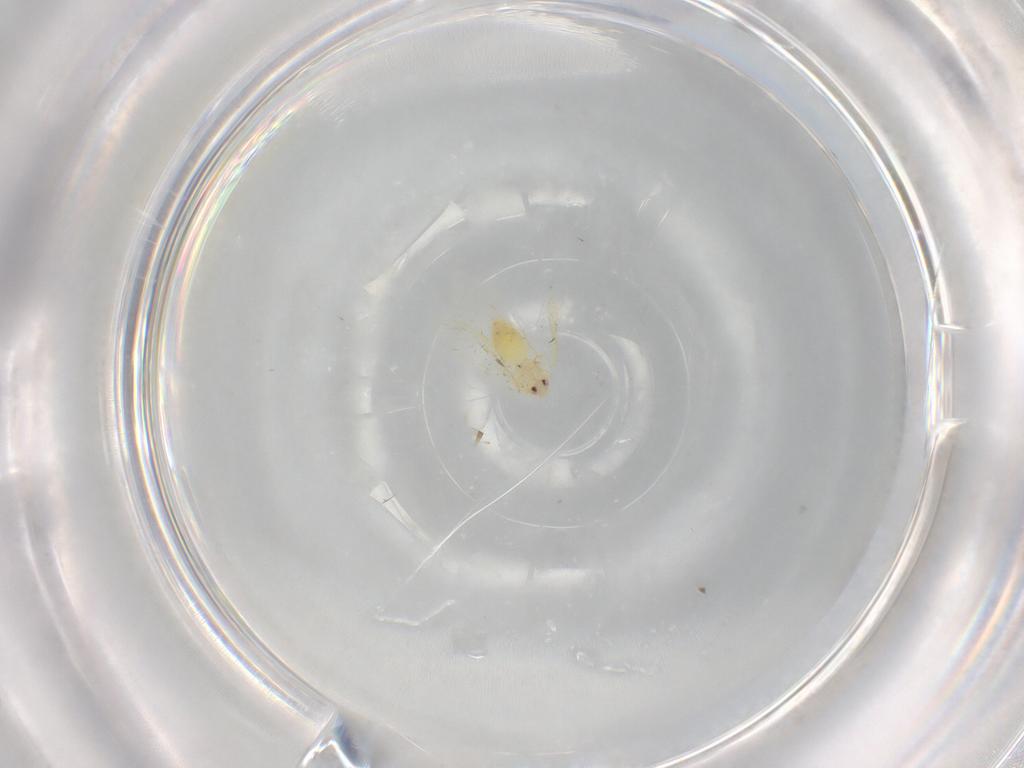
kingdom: Animalia
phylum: Arthropoda
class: Insecta
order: Hemiptera
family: Aleyrodidae
